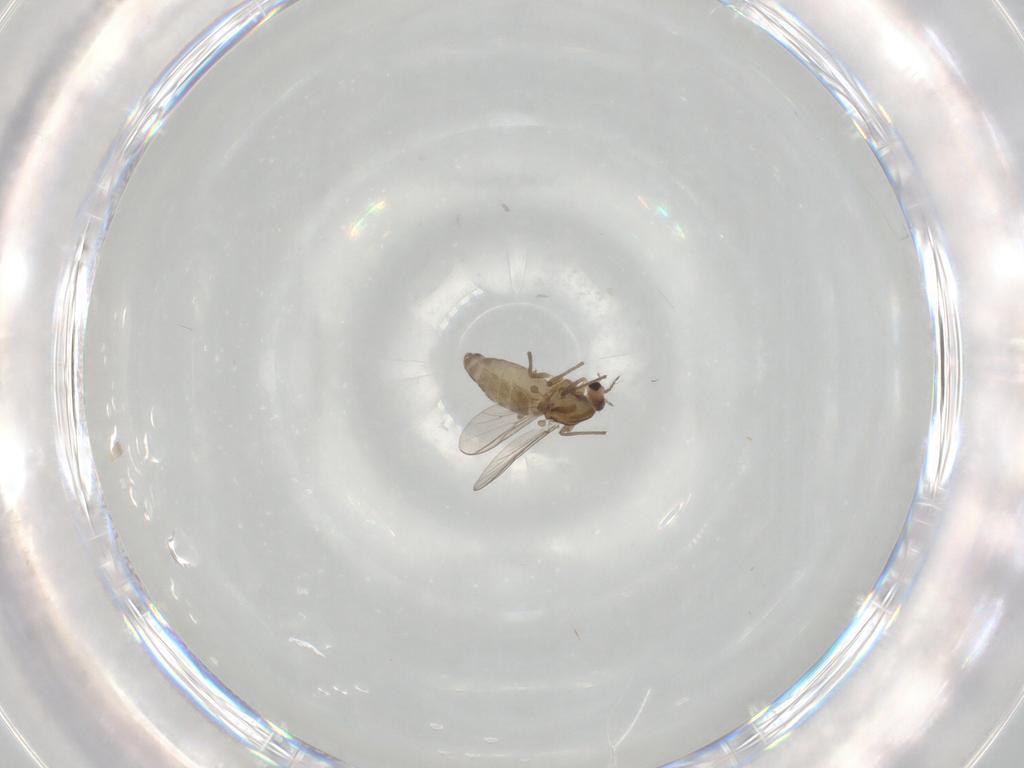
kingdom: Animalia
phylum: Arthropoda
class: Insecta
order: Diptera
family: Chironomidae
